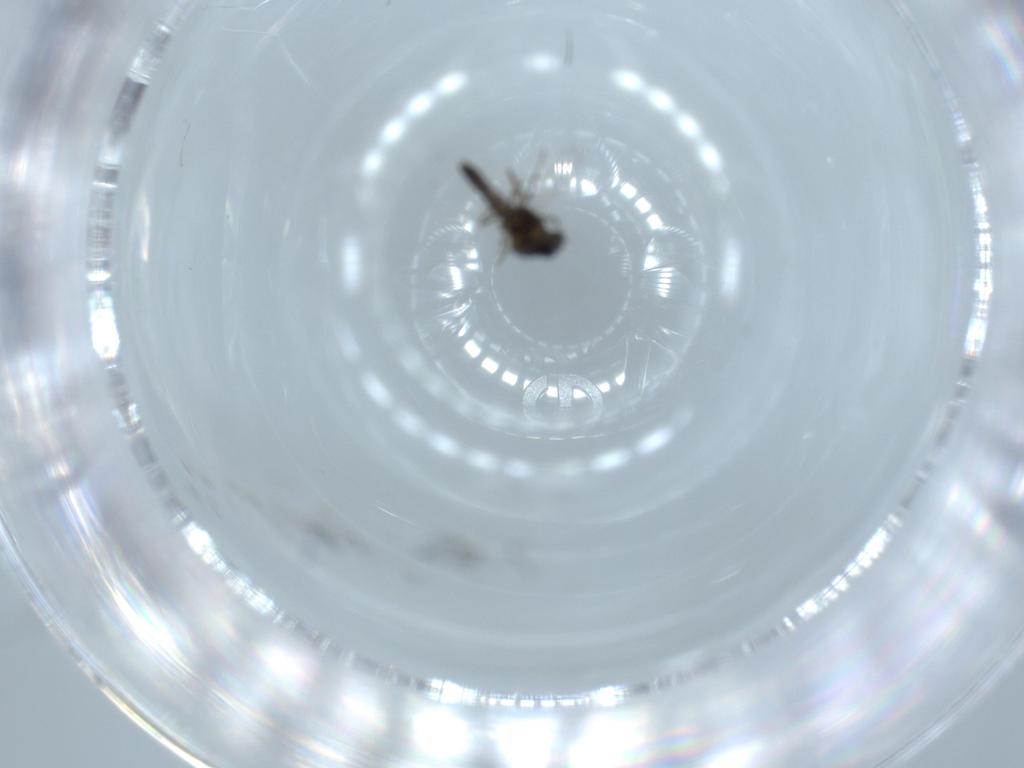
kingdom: Animalia
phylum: Arthropoda
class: Insecta
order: Diptera
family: Ceratopogonidae
